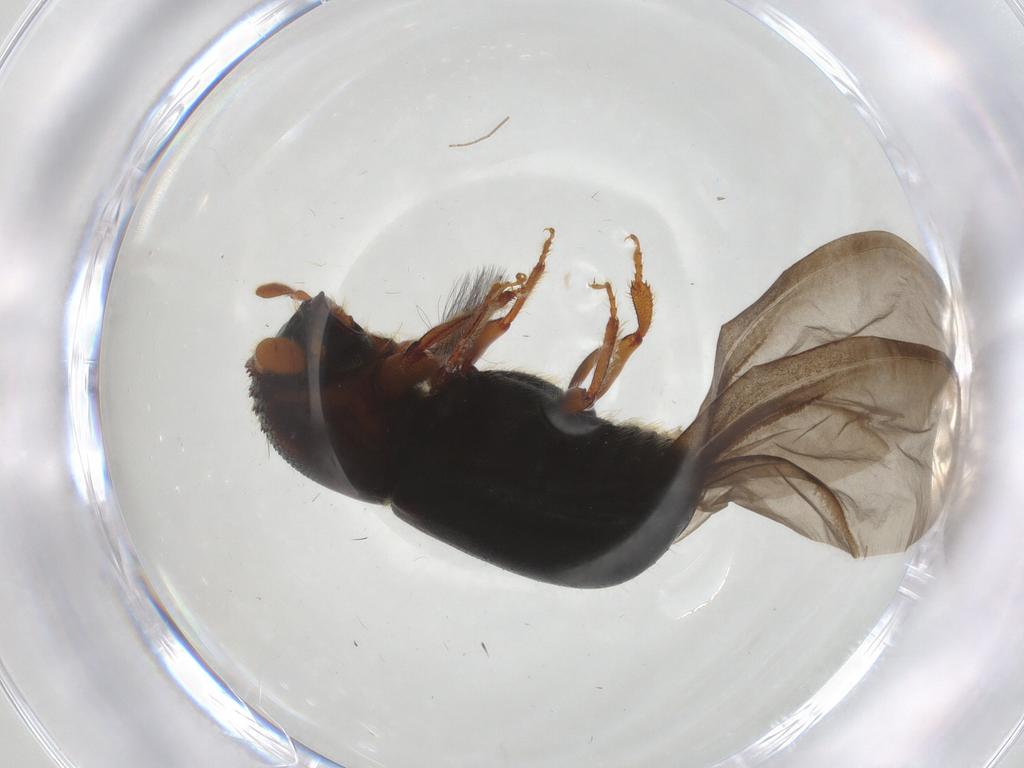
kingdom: Animalia
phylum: Arthropoda
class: Insecta
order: Coleoptera
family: Curculionidae
